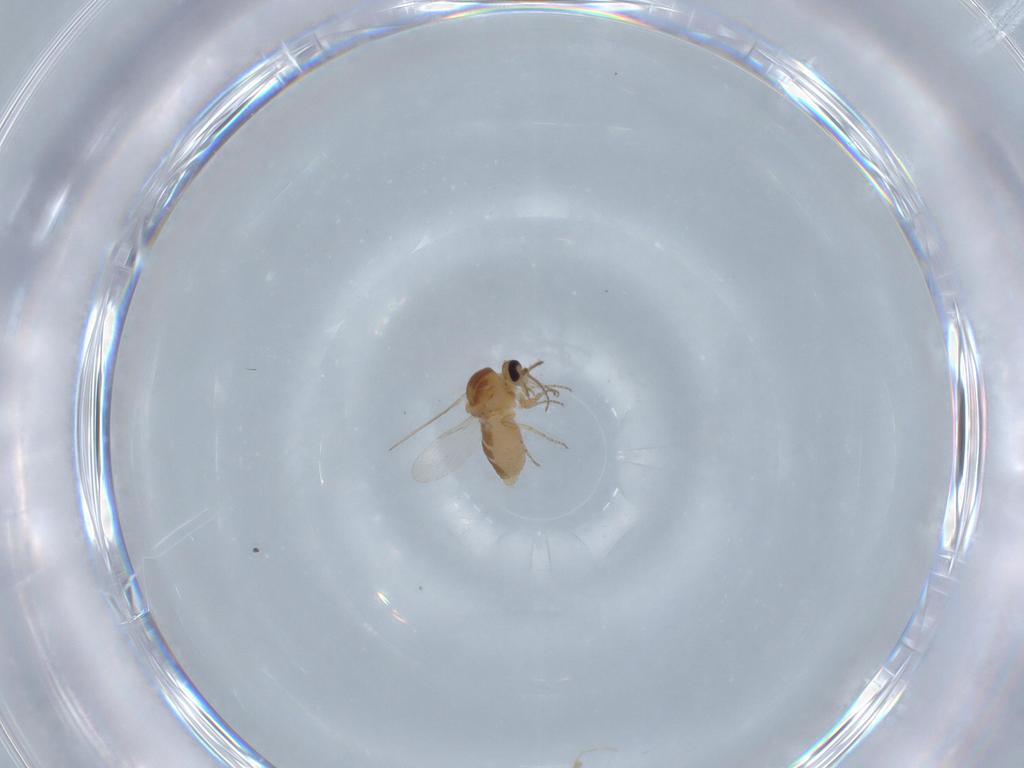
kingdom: Animalia
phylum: Arthropoda
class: Insecta
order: Diptera
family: Ceratopogonidae
